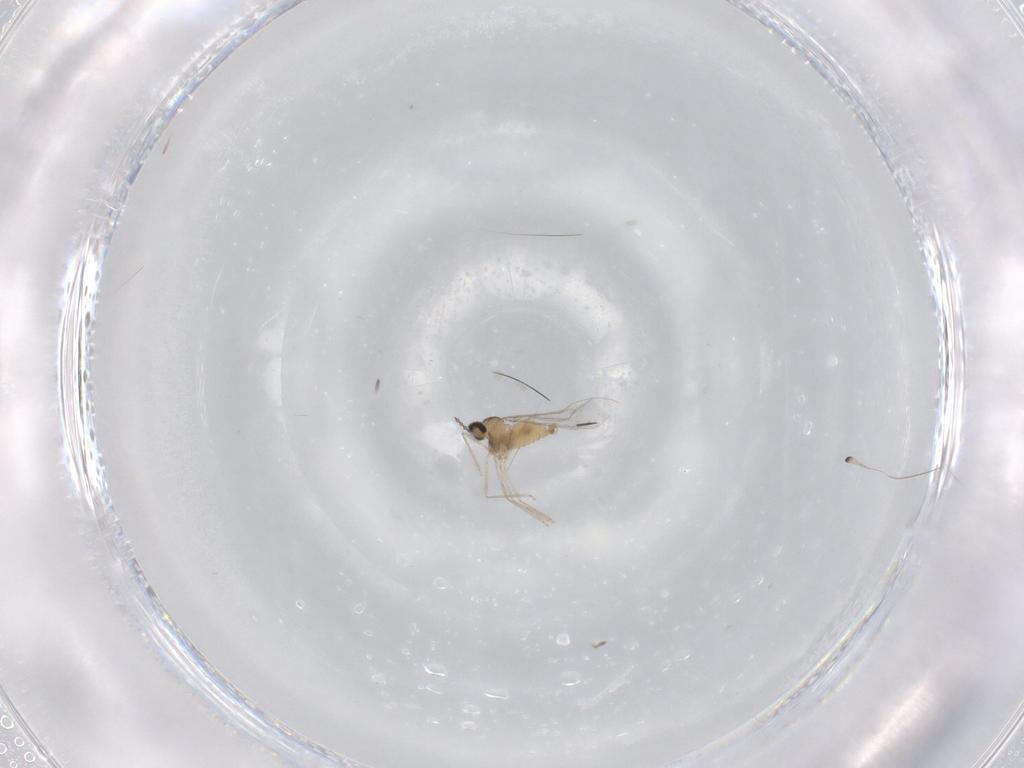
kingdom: Animalia
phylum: Arthropoda
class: Insecta
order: Diptera
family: Cecidomyiidae
